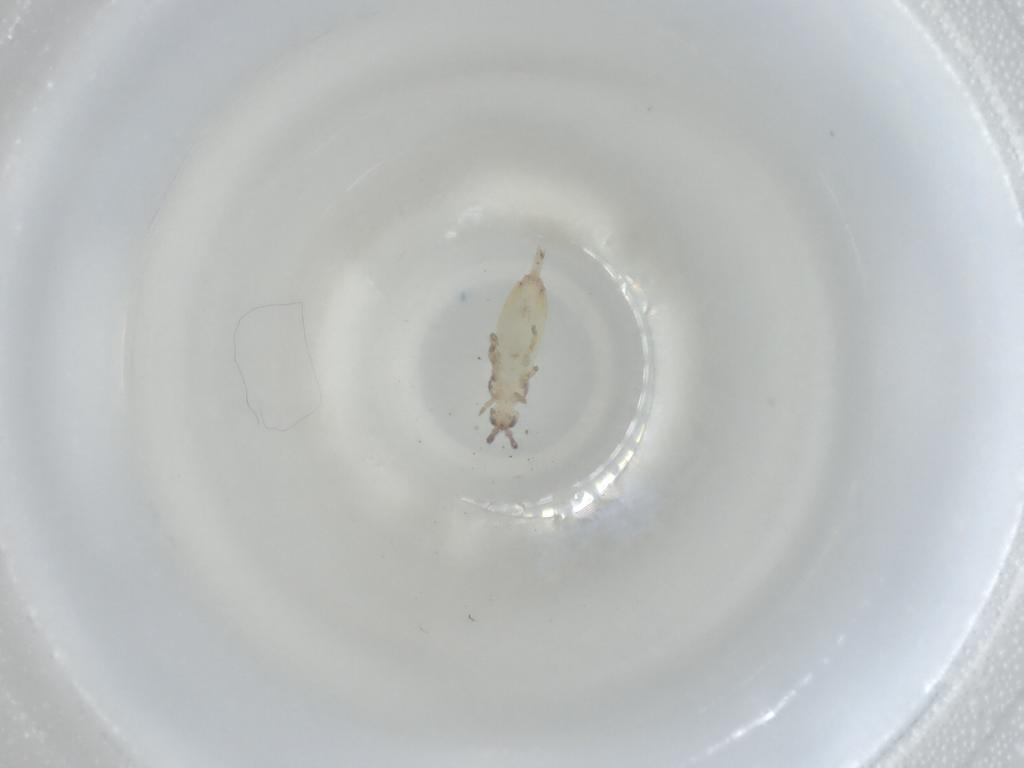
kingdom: Animalia
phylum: Arthropoda
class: Collembola
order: Entomobryomorpha
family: Entomobryidae
